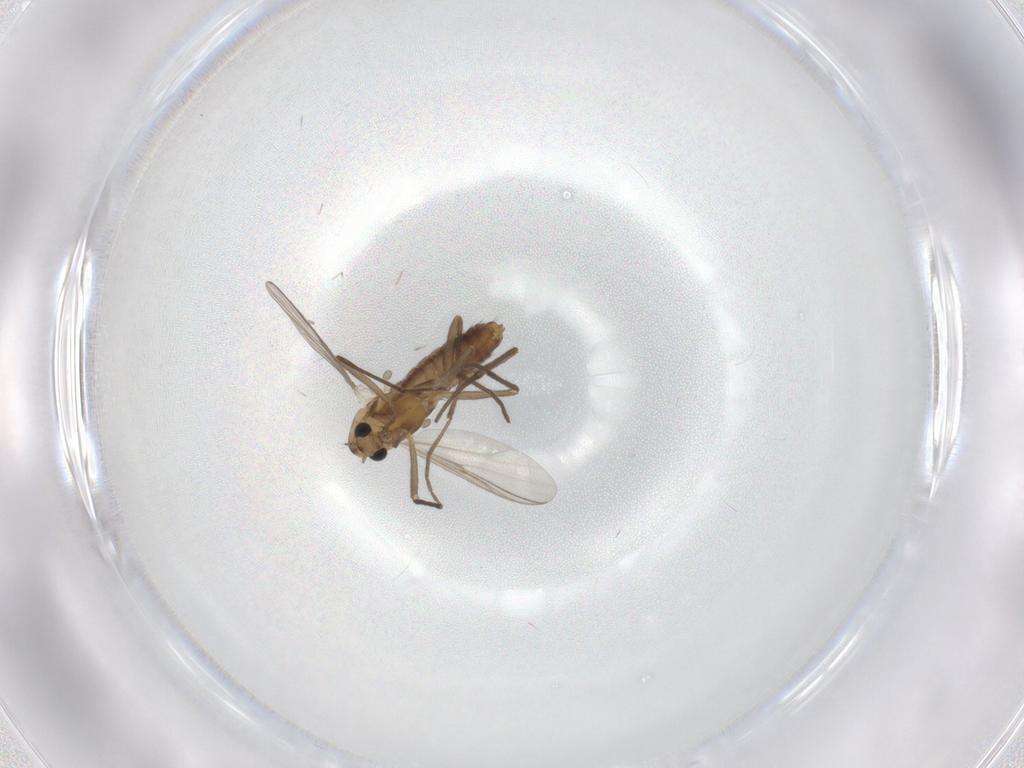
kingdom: Animalia
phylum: Arthropoda
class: Insecta
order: Diptera
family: Chironomidae
